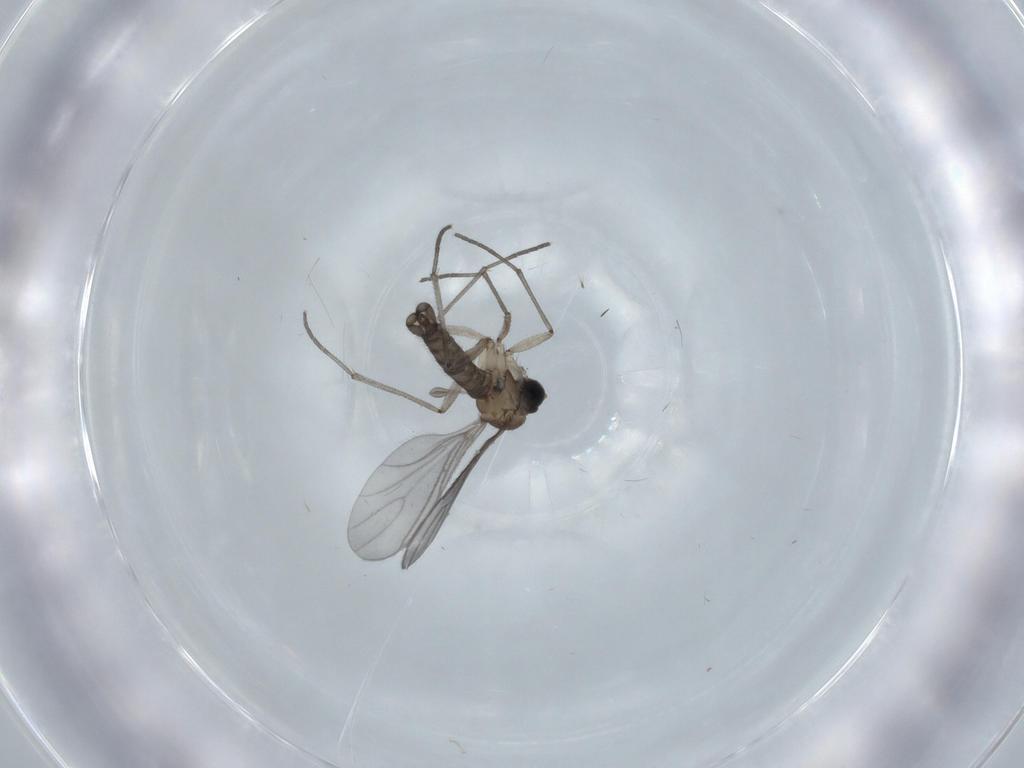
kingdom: Animalia
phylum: Arthropoda
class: Insecta
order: Diptera
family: Sciaridae
